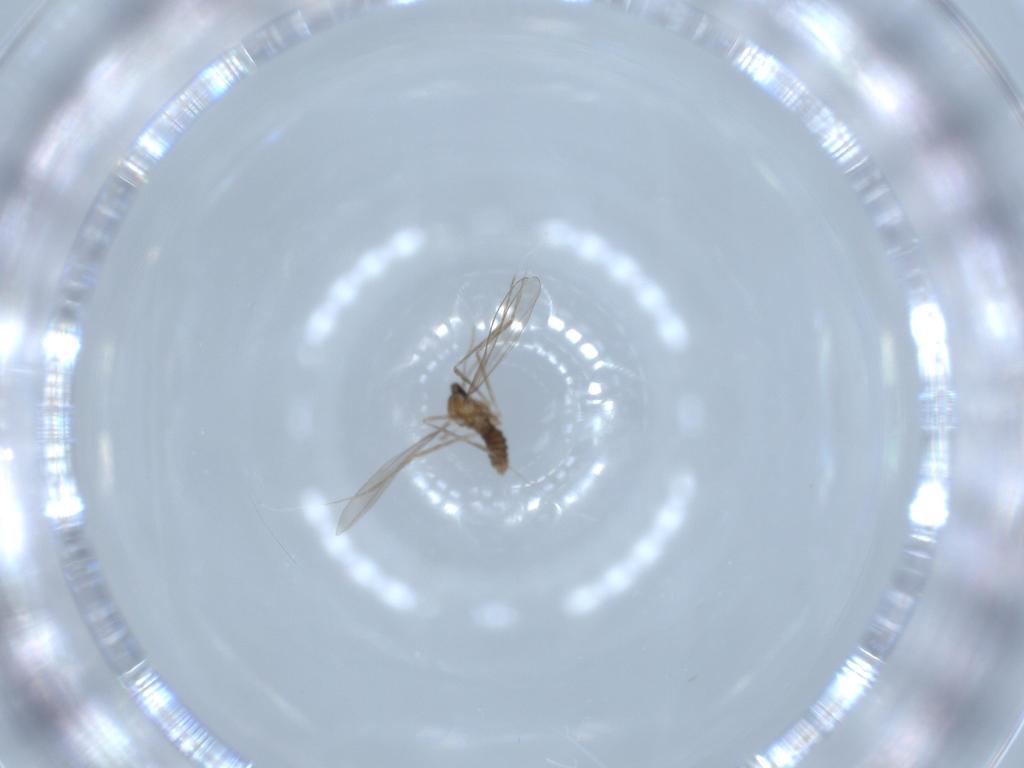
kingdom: Animalia
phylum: Arthropoda
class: Insecta
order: Diptera
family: Cecidomyiidae
